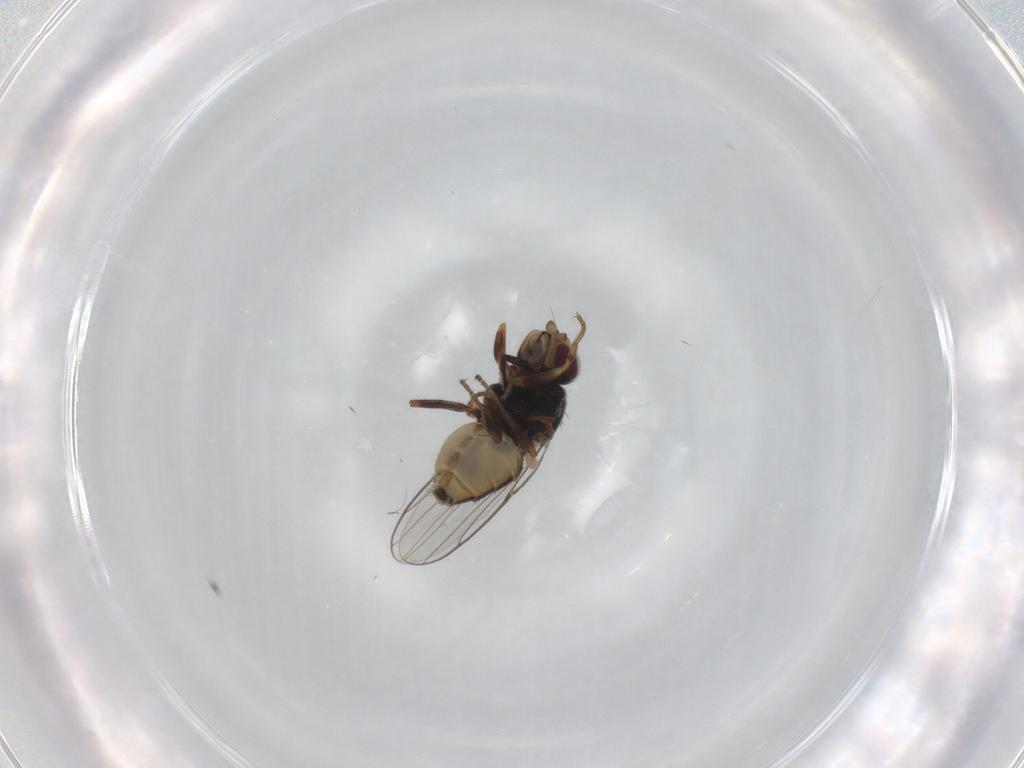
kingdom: Animalia
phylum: Arthropoda
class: Insecta
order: Diptera
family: Chloropidae
